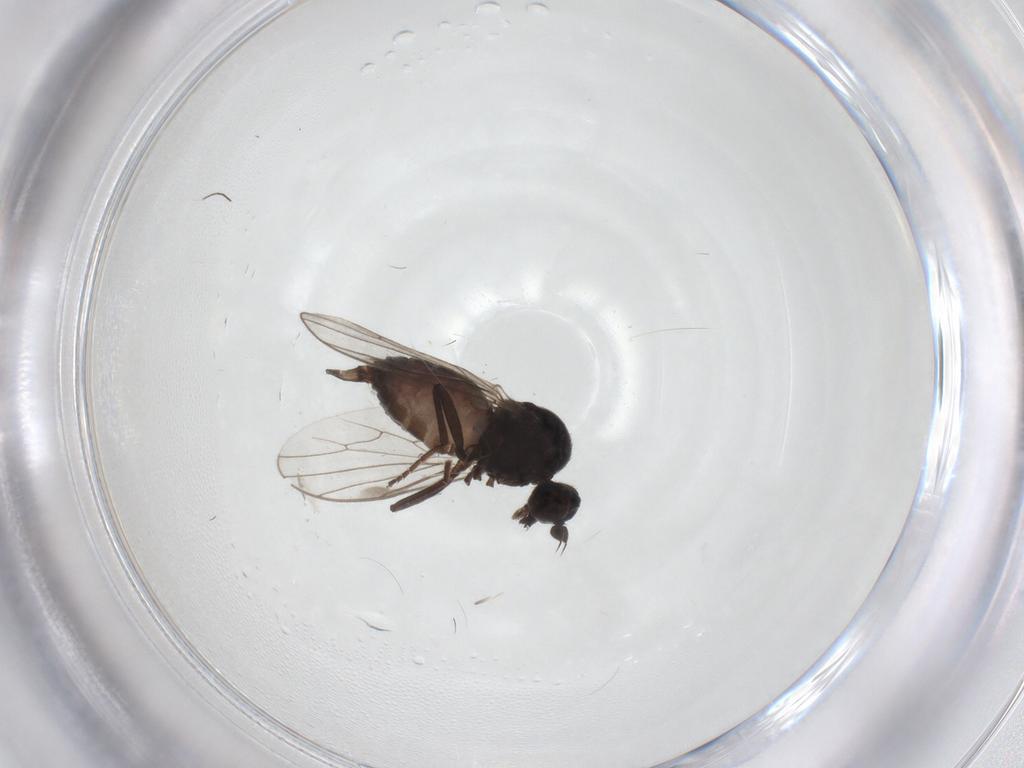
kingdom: Animalia
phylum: Arthropoda
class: Insecta
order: Diptera
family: Hybotidae
